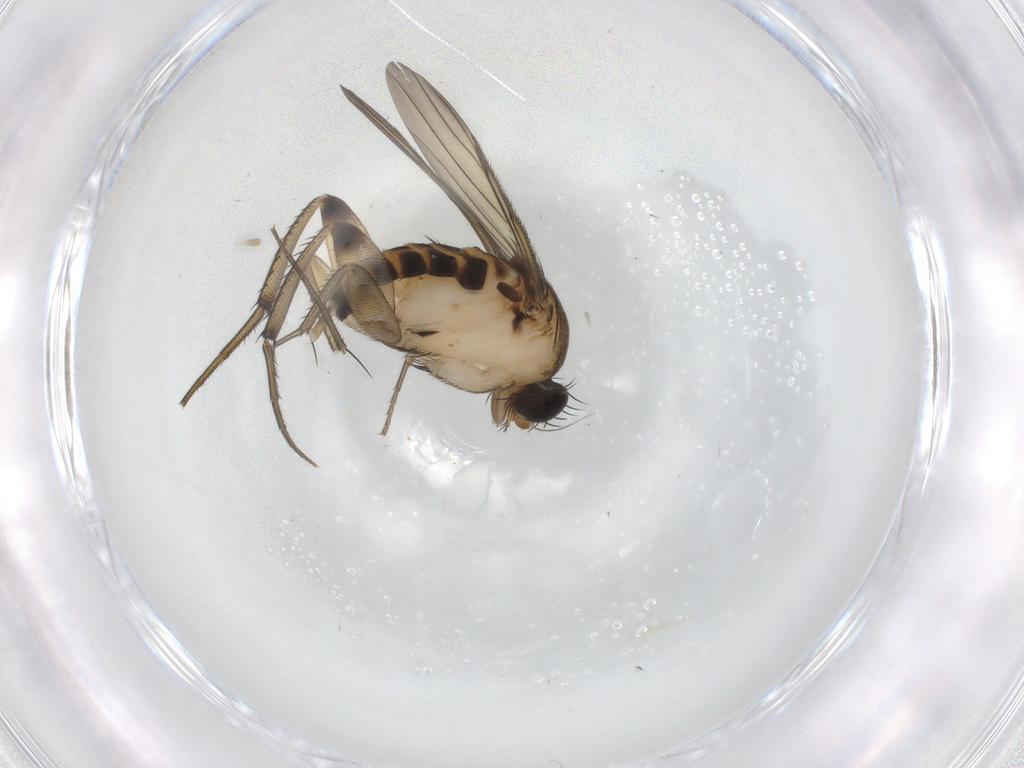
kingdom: Animalia
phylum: Arthropoda
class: Insecta
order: Diptera
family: Phoridae
